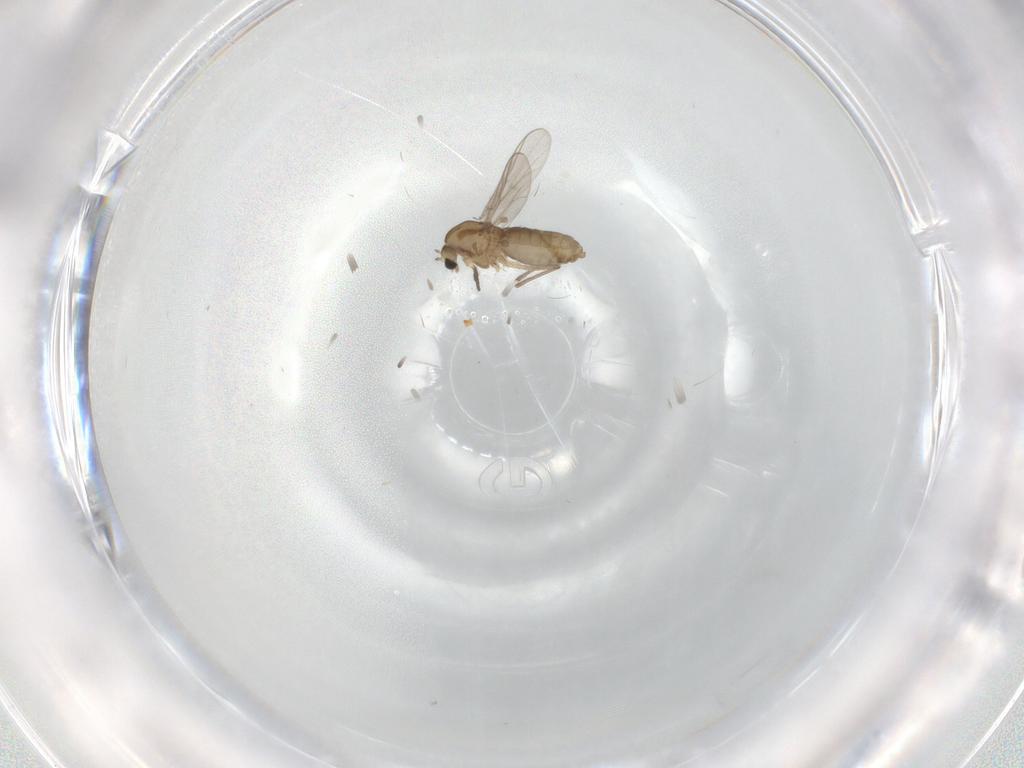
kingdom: Animalia
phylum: Arthropoda
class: Insecta
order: Diptera
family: Chironomidae
